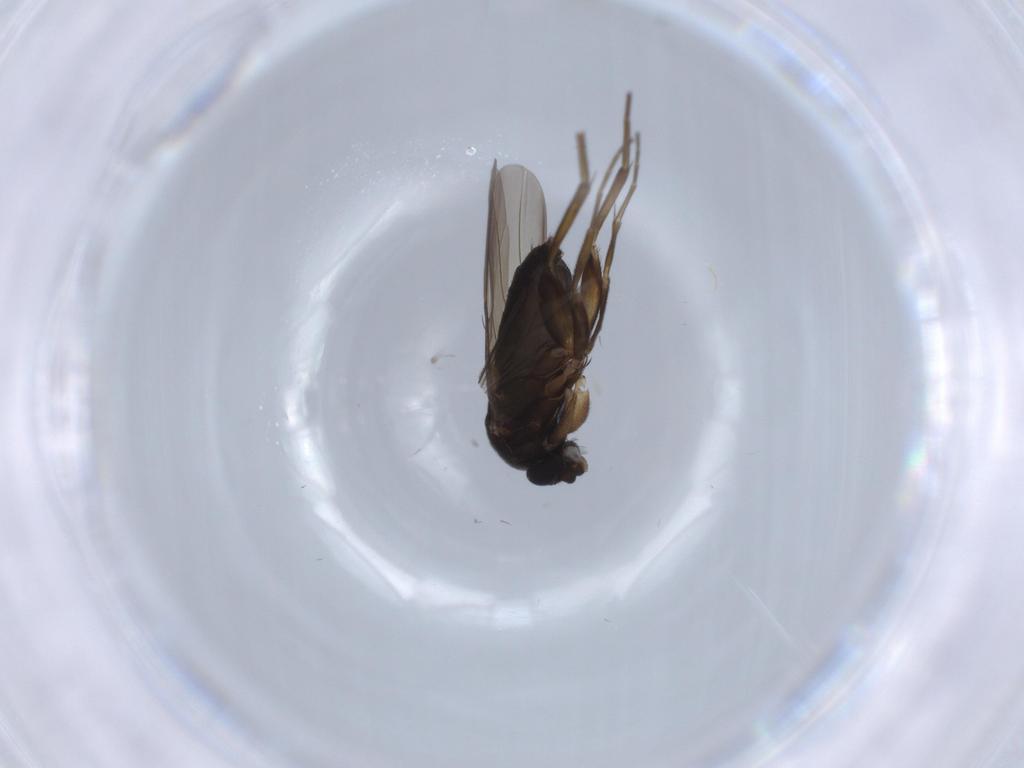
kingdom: Animalia
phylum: Arthropoda
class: Insecta
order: Diptera
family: Phoridae
